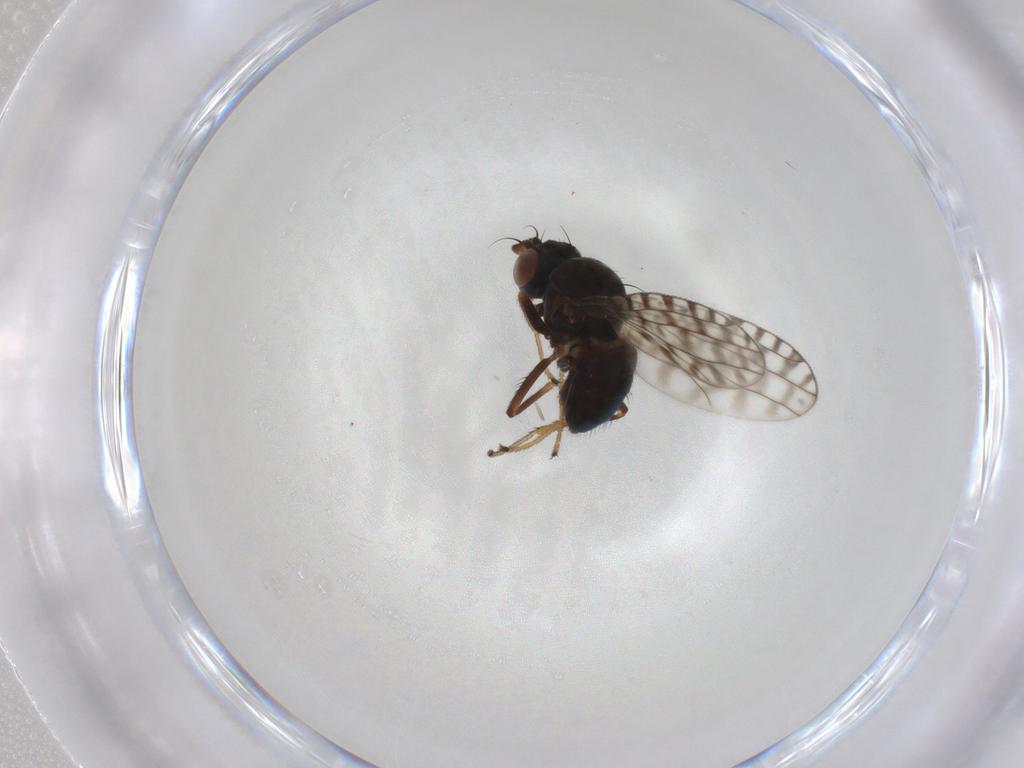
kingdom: Animalia
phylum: Arthropoda
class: Insecta
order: Diptera
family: Ephydridae
